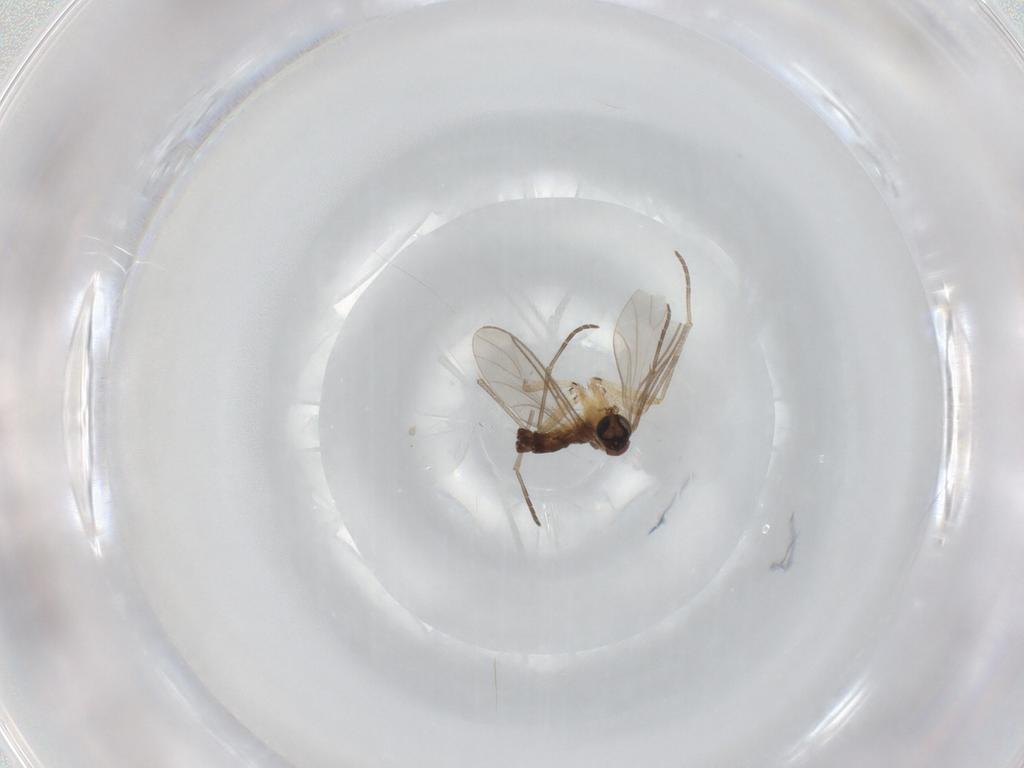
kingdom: Animalia
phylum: Arthropoda
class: Insecta
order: Diptera
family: Sciaridae
